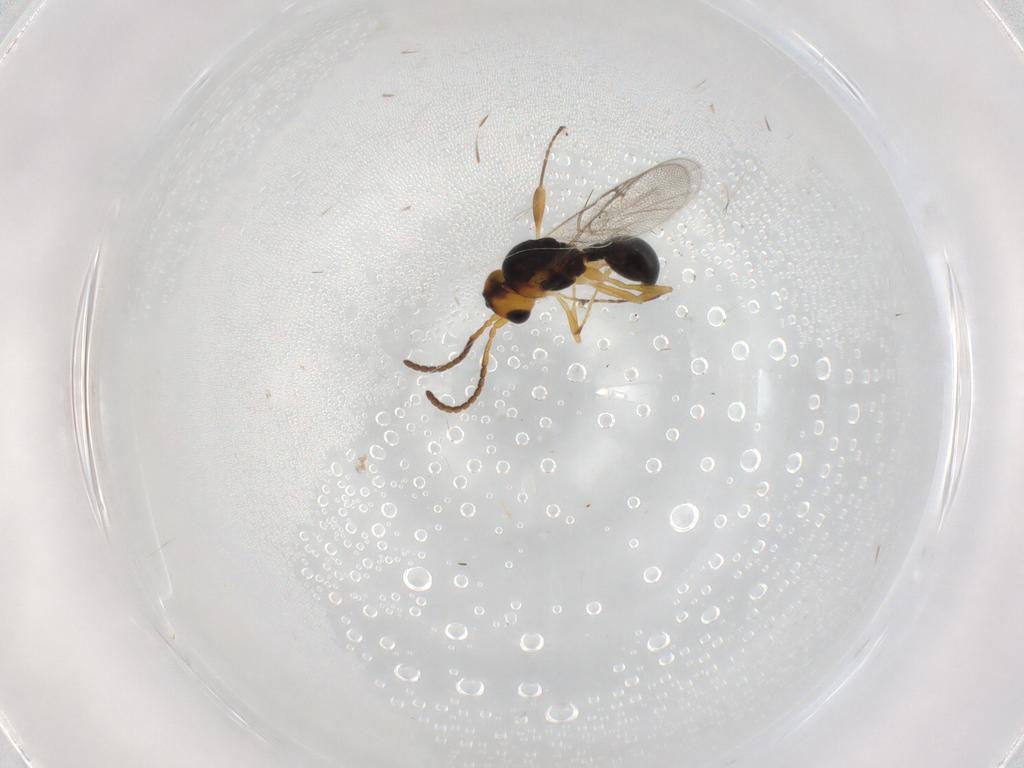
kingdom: Animalia
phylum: Arthropoda
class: Insecta
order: Hymenoptera
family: Diapriidae
